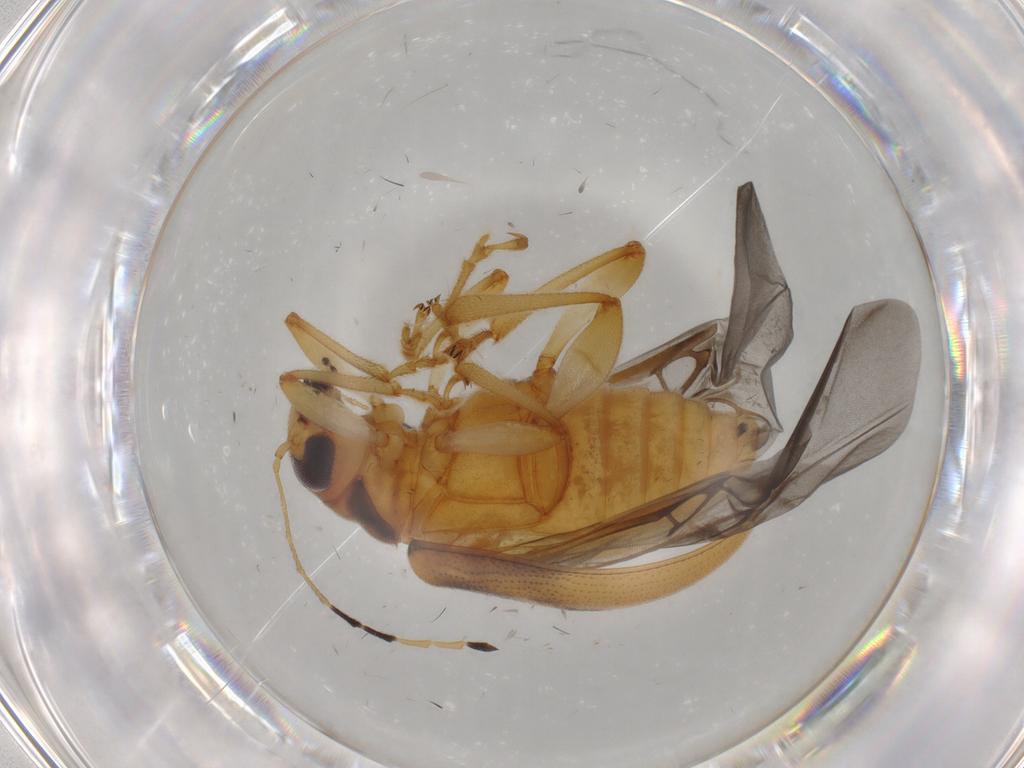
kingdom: Animalia
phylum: Arthropoda
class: Insecta
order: Coleoptera
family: Chrysomelidae
